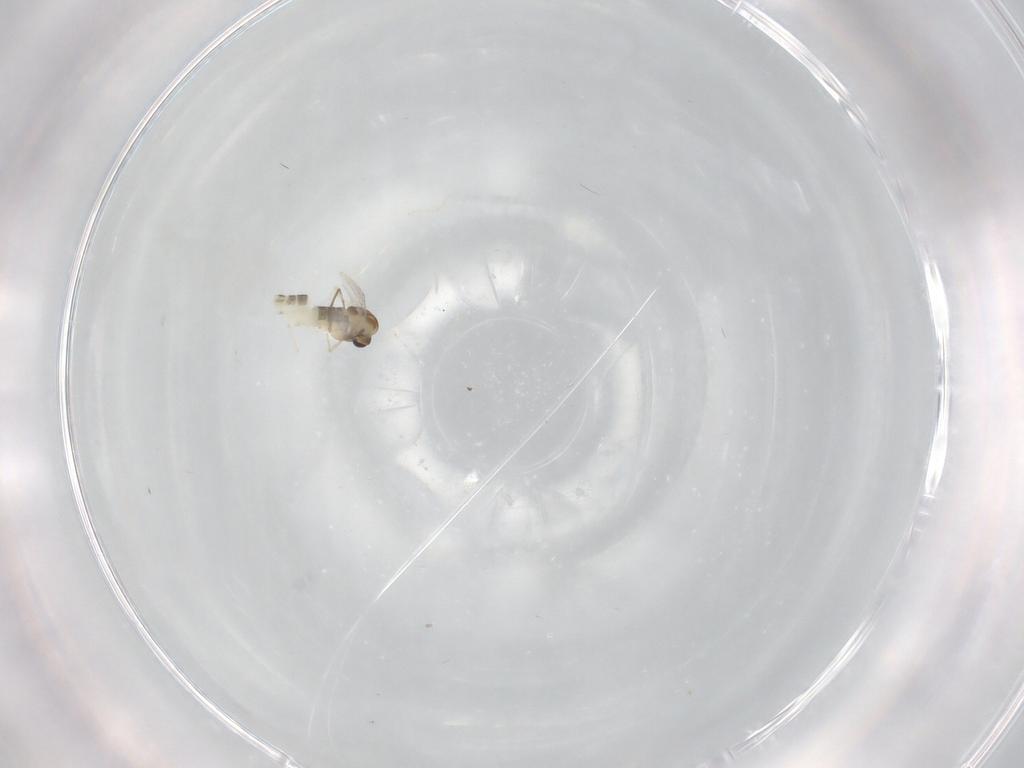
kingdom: Animalia
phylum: Arthropoda
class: Insecta
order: Diptera
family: Chironomidae
